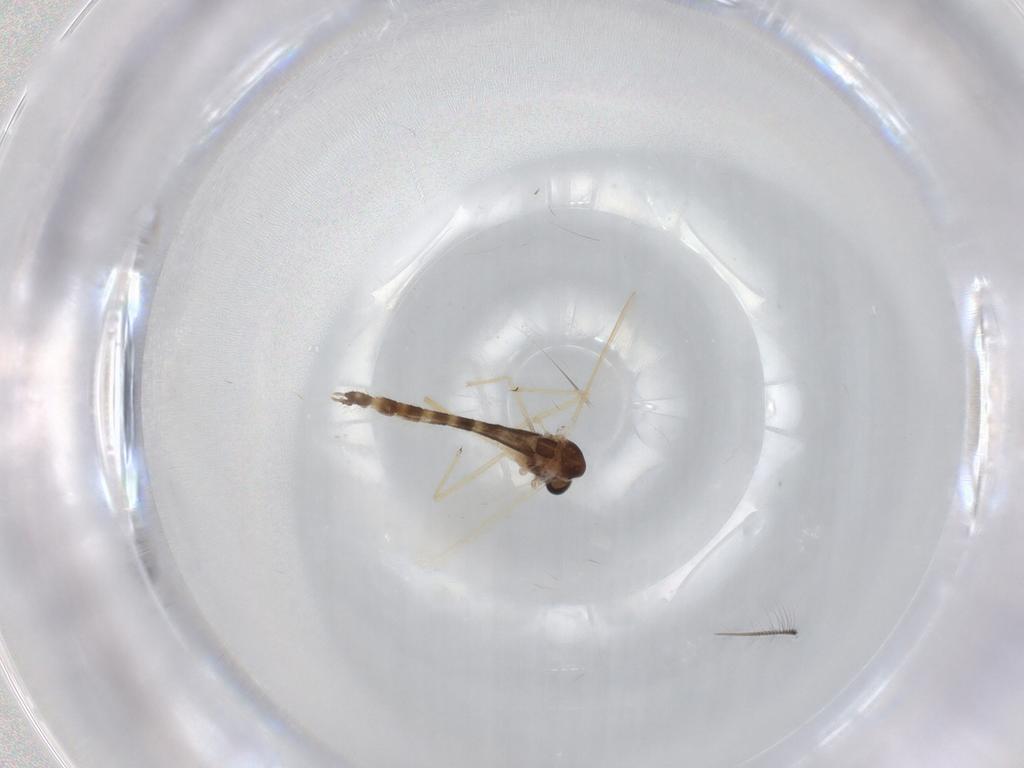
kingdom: Animalia
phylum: Arthropoda
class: Insecta
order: Diptera
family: Chironomidae
